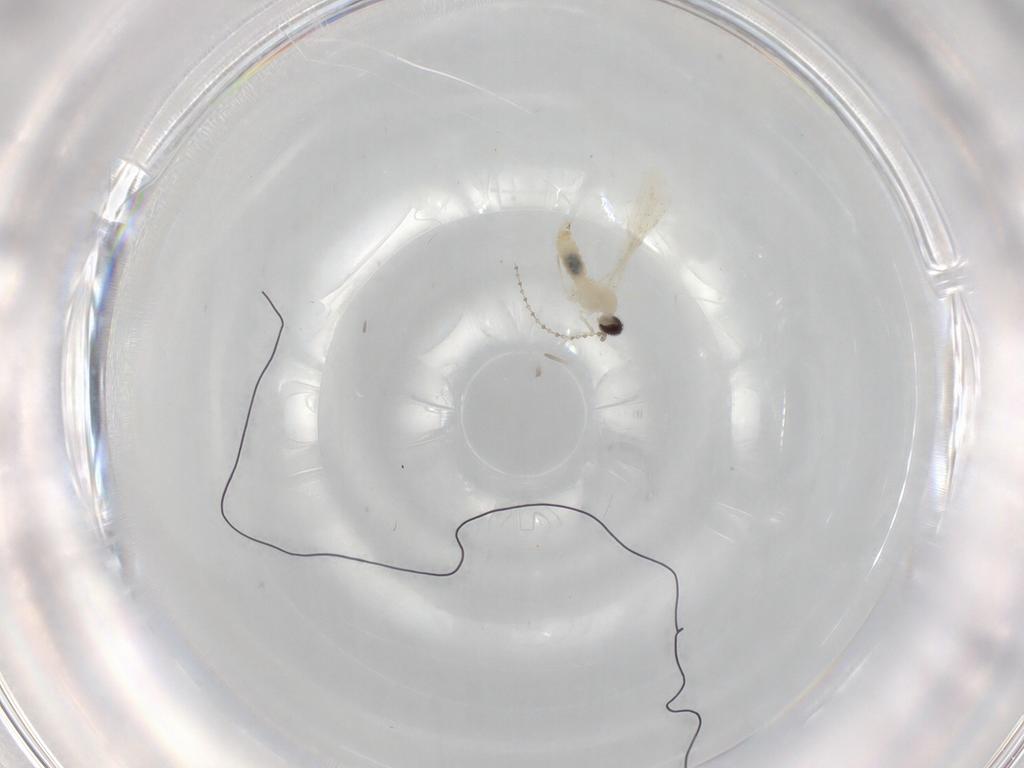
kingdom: Animalia
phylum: Arthropoda
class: Insecta
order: Diptera
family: Cecidomyiidae
